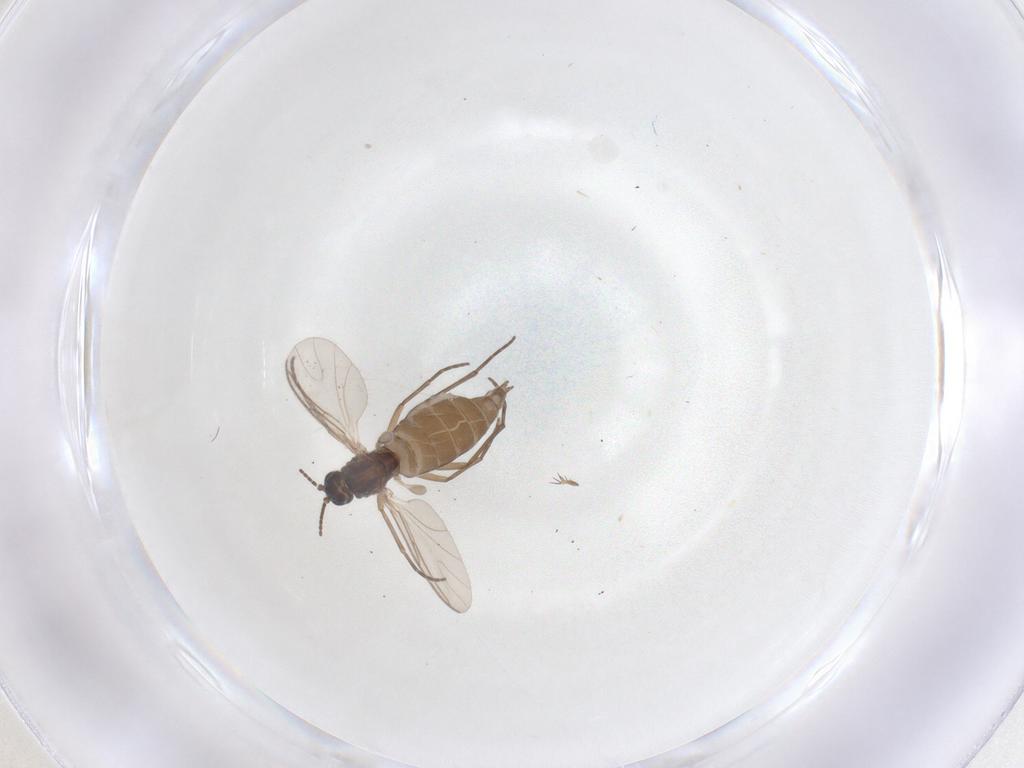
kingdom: Animalia
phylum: Arthropoda
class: Insecta
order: Diptera
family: Sciaridae
